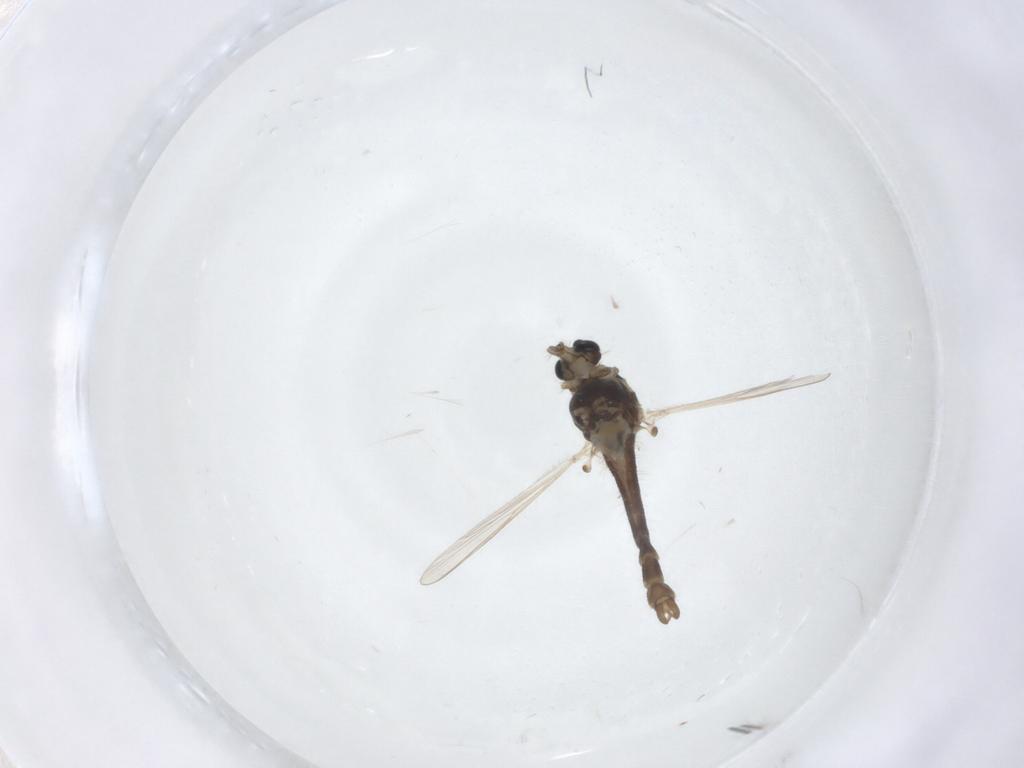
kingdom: Animalia
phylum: Arthropoda
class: Insecta
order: Diptera
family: Chironomidae
